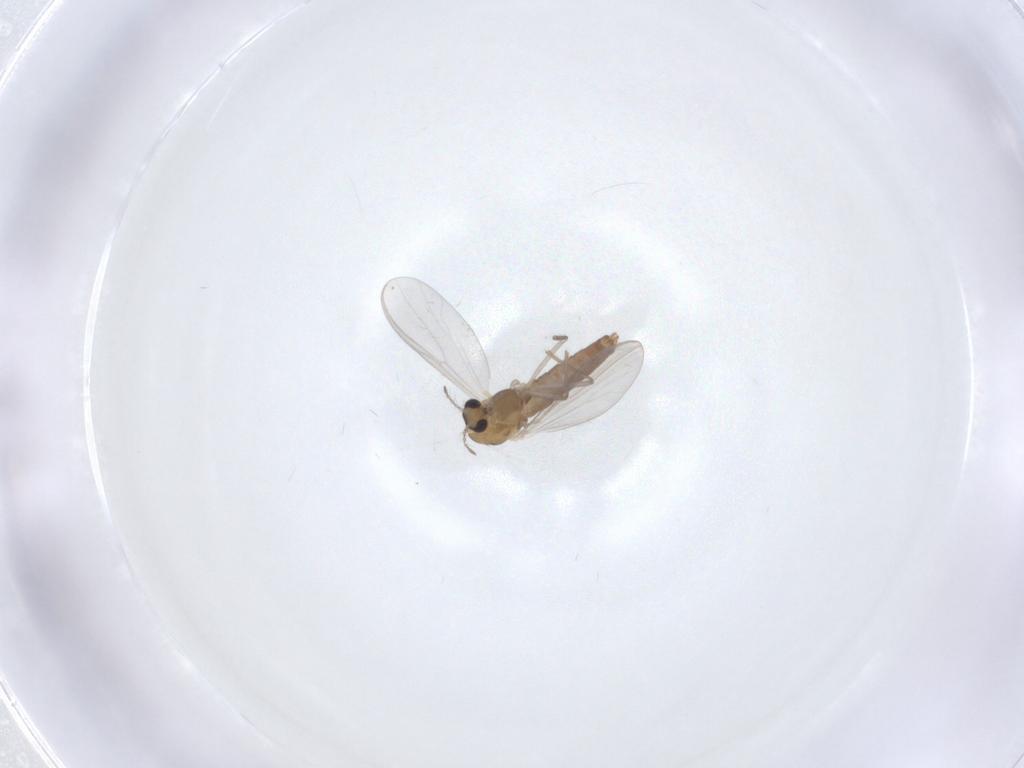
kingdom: Animalia
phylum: Arthropoda
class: Insecta
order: Diptera
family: Chironomidae
